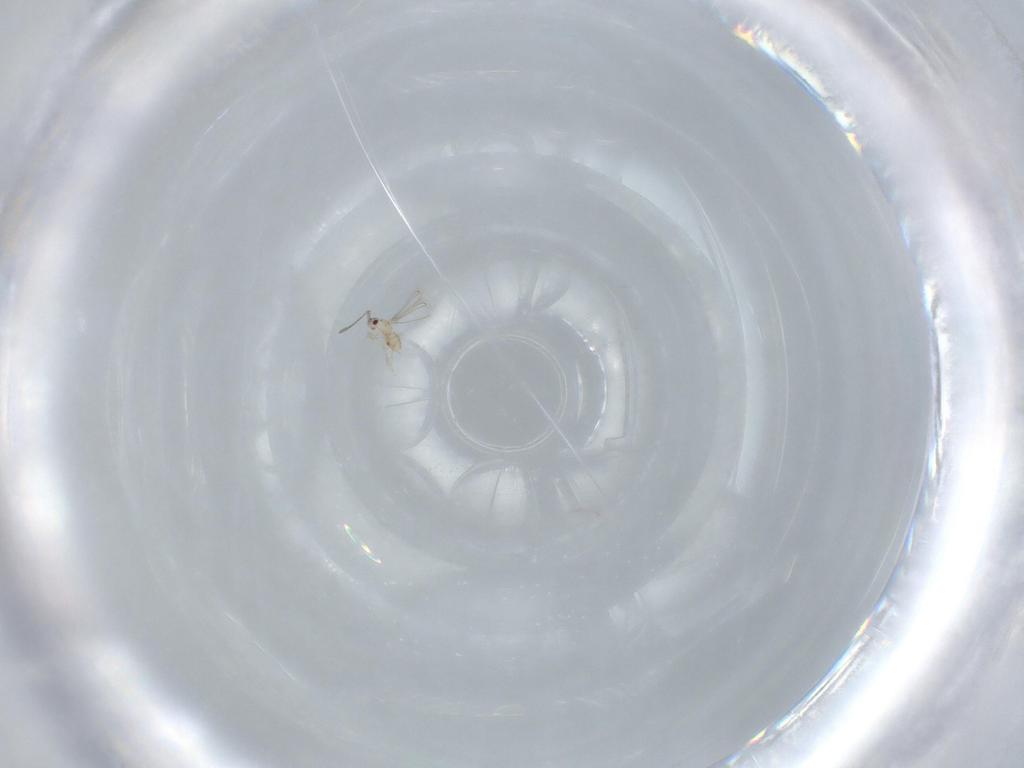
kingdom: Animalia
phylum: Arthropoda
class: Insecta
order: Hymenoptera
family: Mymaridae
